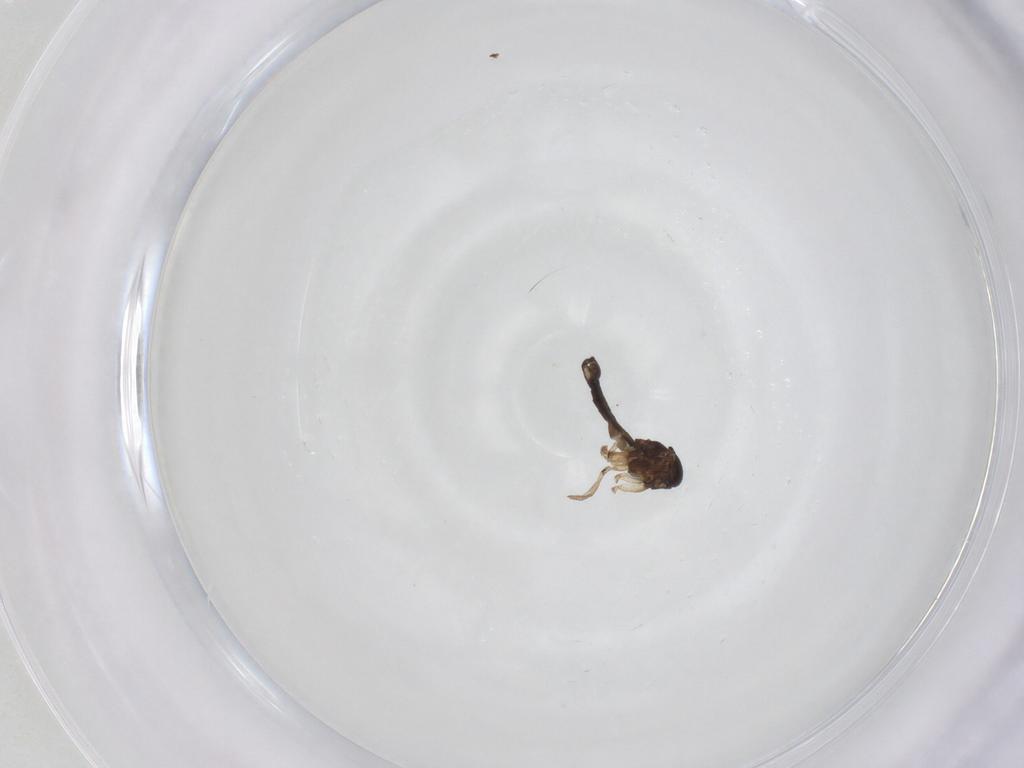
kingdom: Animalia
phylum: Arthropoda
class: Insecta
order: Diptera
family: Sciaridae
